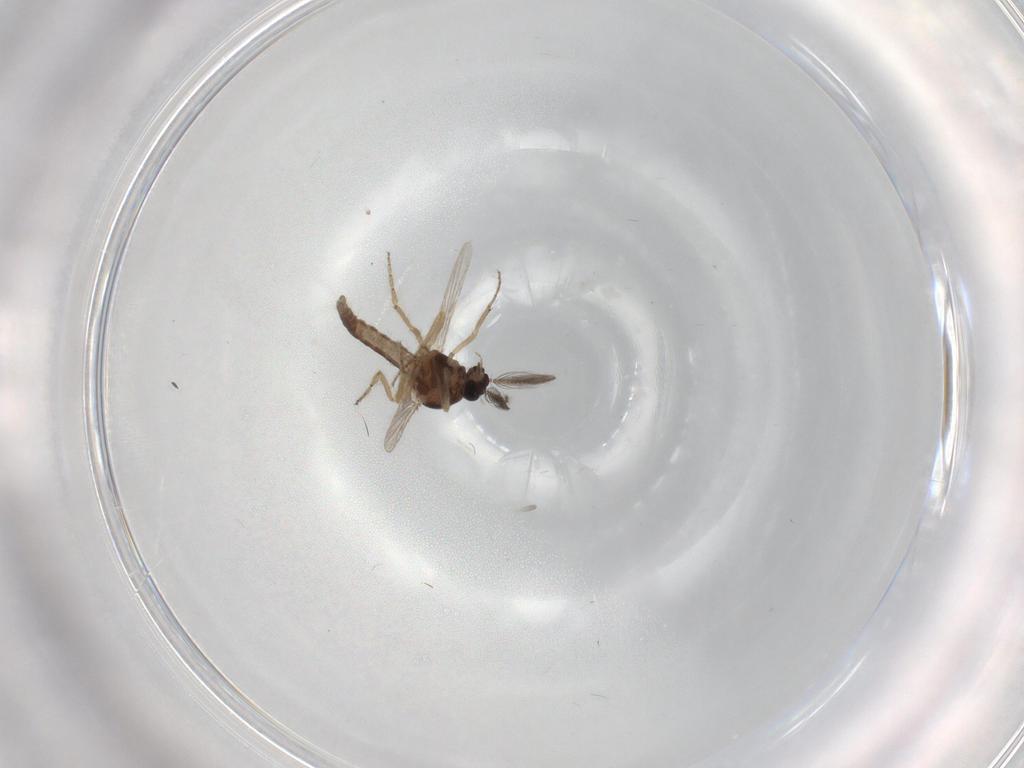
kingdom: Animalia
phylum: Arthropoda
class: Insecta
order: Diptera
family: Ceratopogonidae
